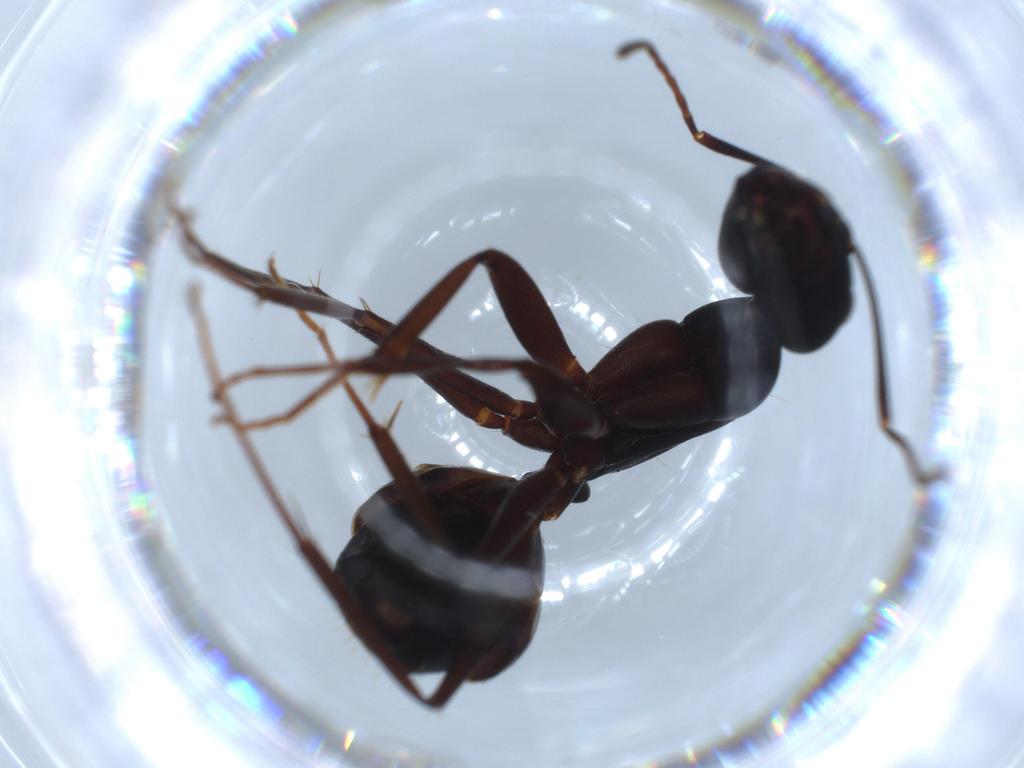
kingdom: Animalia
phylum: Arthropoda
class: Insecta
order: Hymenoptera
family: Formicidae
